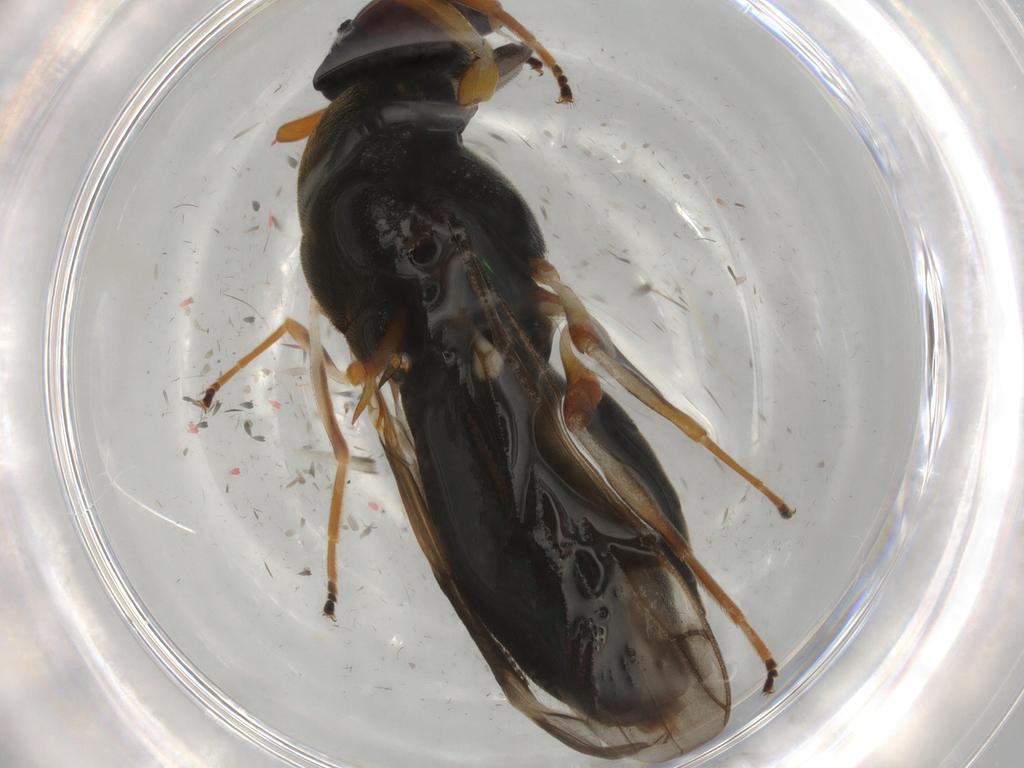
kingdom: Animalia
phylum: Arthropoda
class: Insecta
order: Diptera
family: Stratiomyidae
